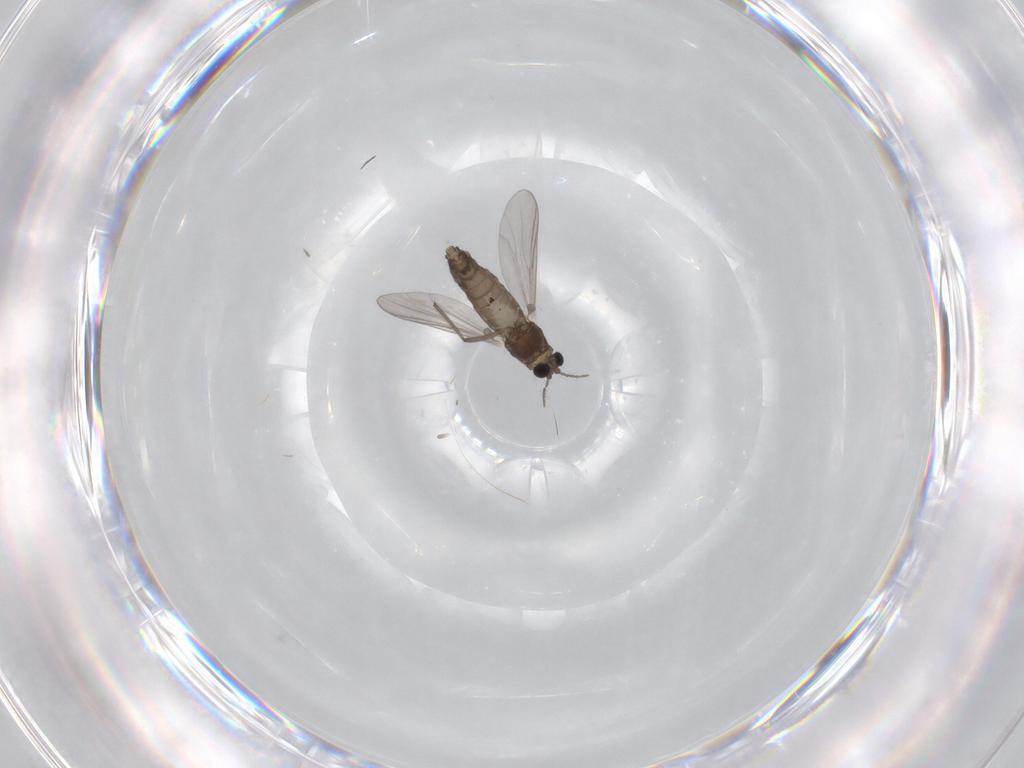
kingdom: Animalia
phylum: Arthropoda
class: Insecta
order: Diptera
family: Chironomidae
